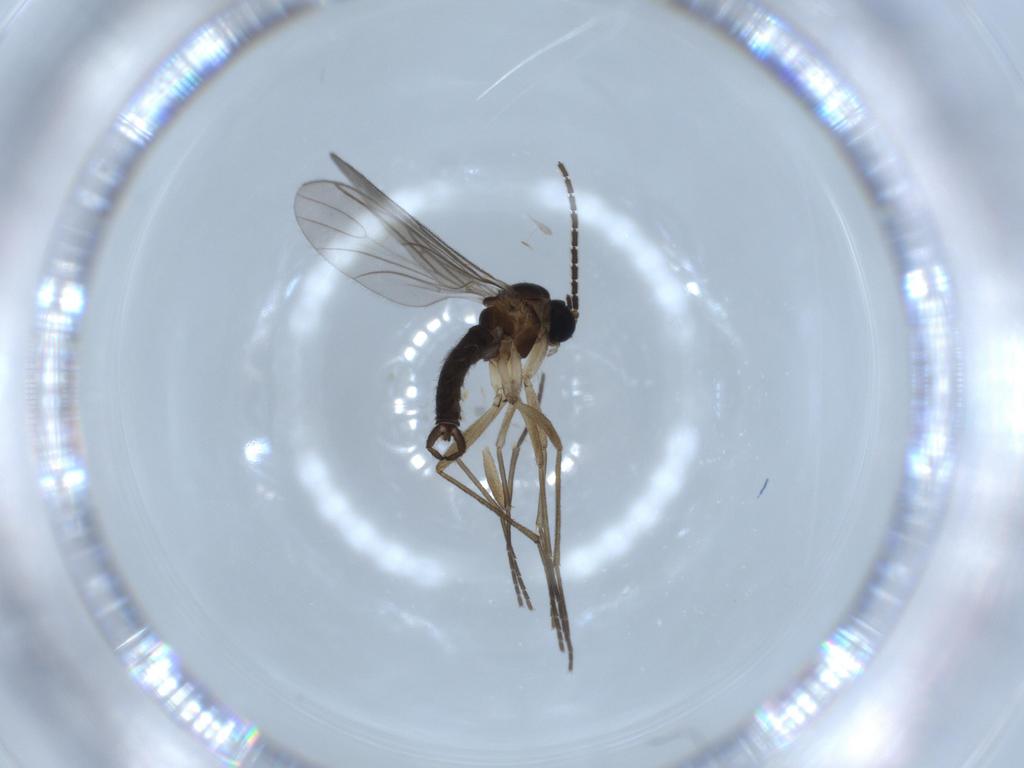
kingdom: Animalia
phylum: Arthropoda
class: Insecta
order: Diptera
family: Sciaridae
